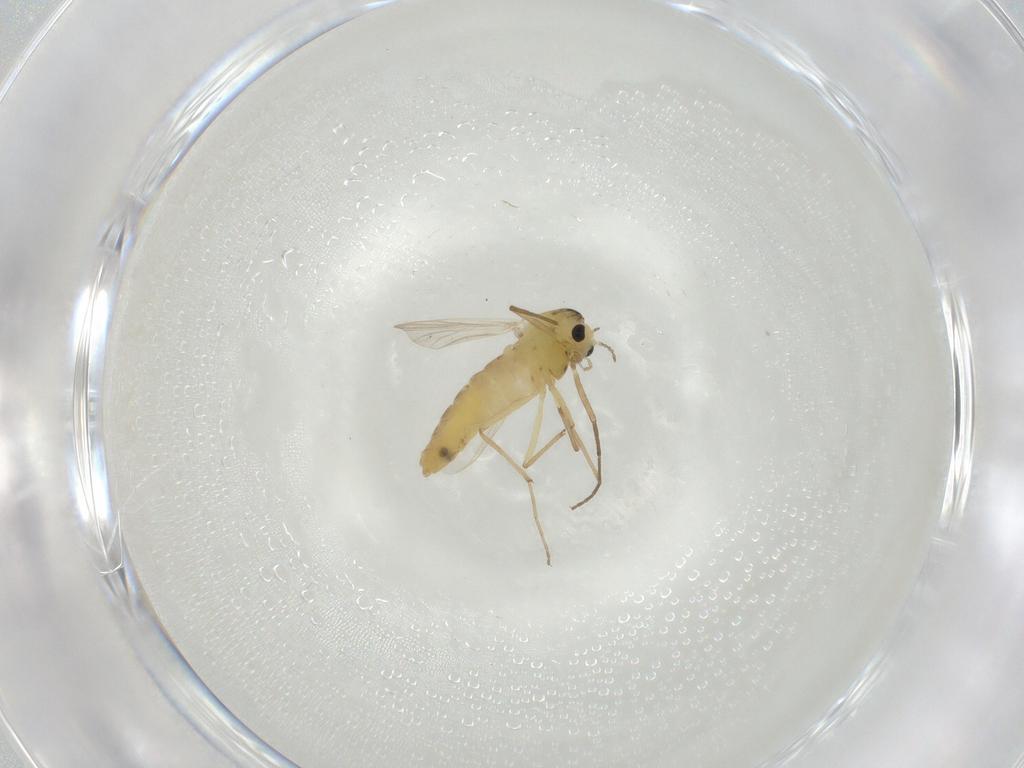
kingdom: Animalia
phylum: Arthropoda
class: Insecta
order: Diptera
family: Chironomidae
